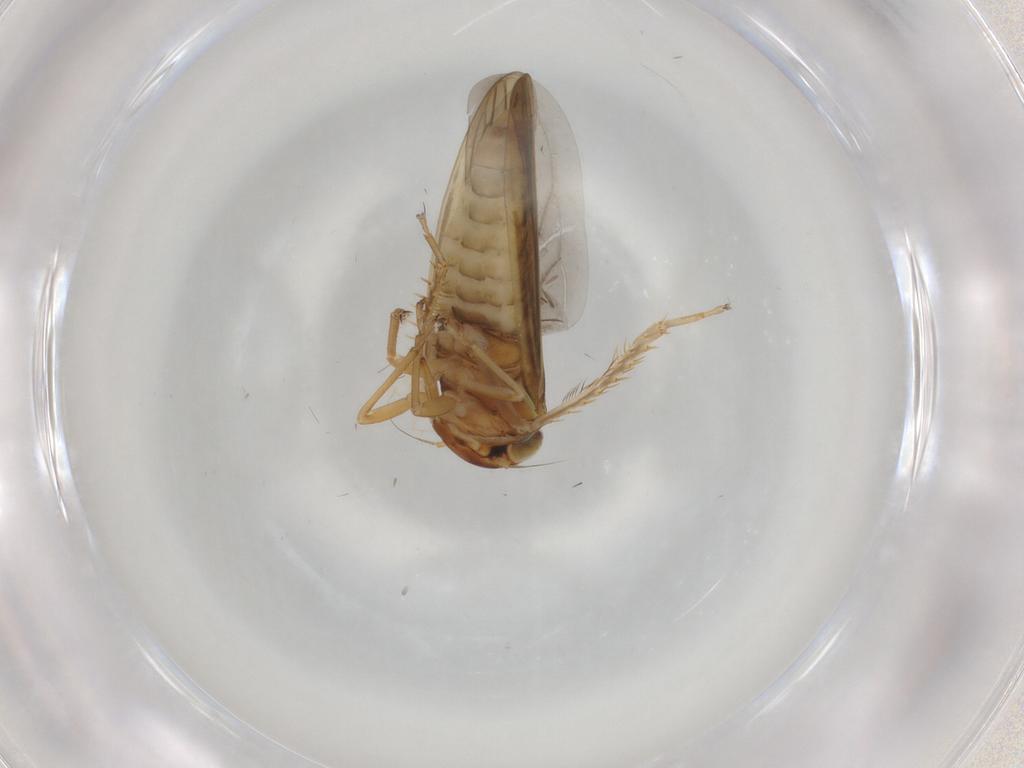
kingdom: Animalia
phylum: Arthropoda
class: Insecta
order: Hemiptera
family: Cicadellidae
